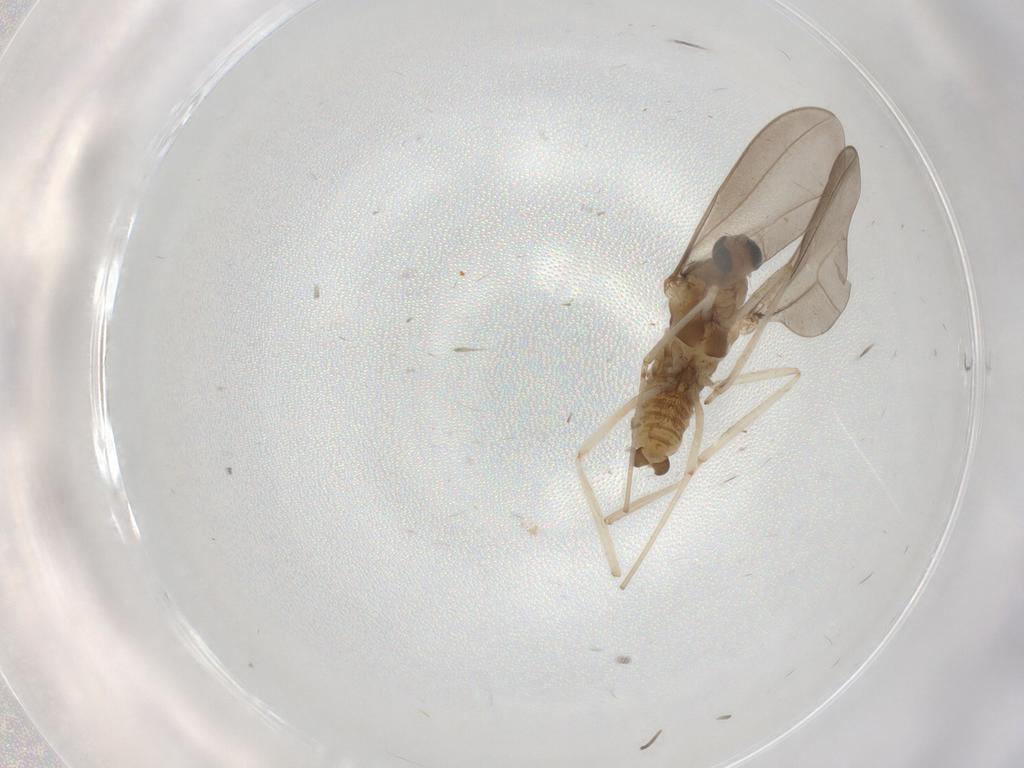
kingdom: Animalia
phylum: Arthropoda
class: Insecta
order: Diptera
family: Cecidomyiidae
